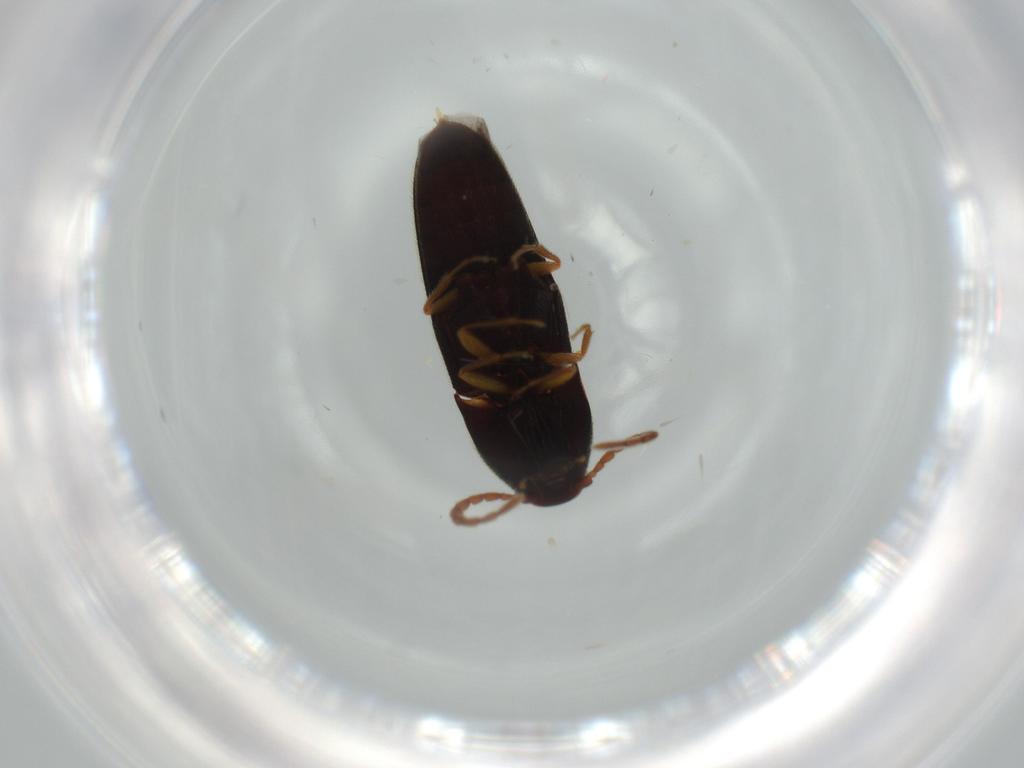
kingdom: Animalia
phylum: Arthropoda
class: Insecta
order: Coleoptera
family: Elateridae
